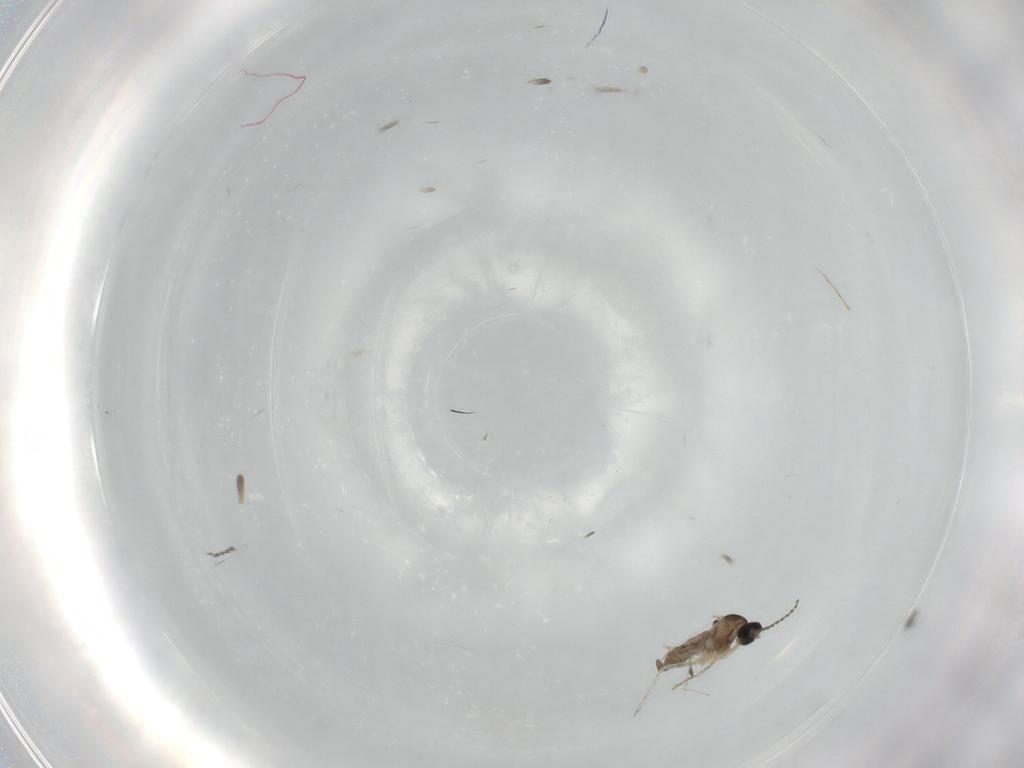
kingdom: Animalia
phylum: Arthropoda
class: Insecta
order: Diptera
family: Cecidomyiidae
